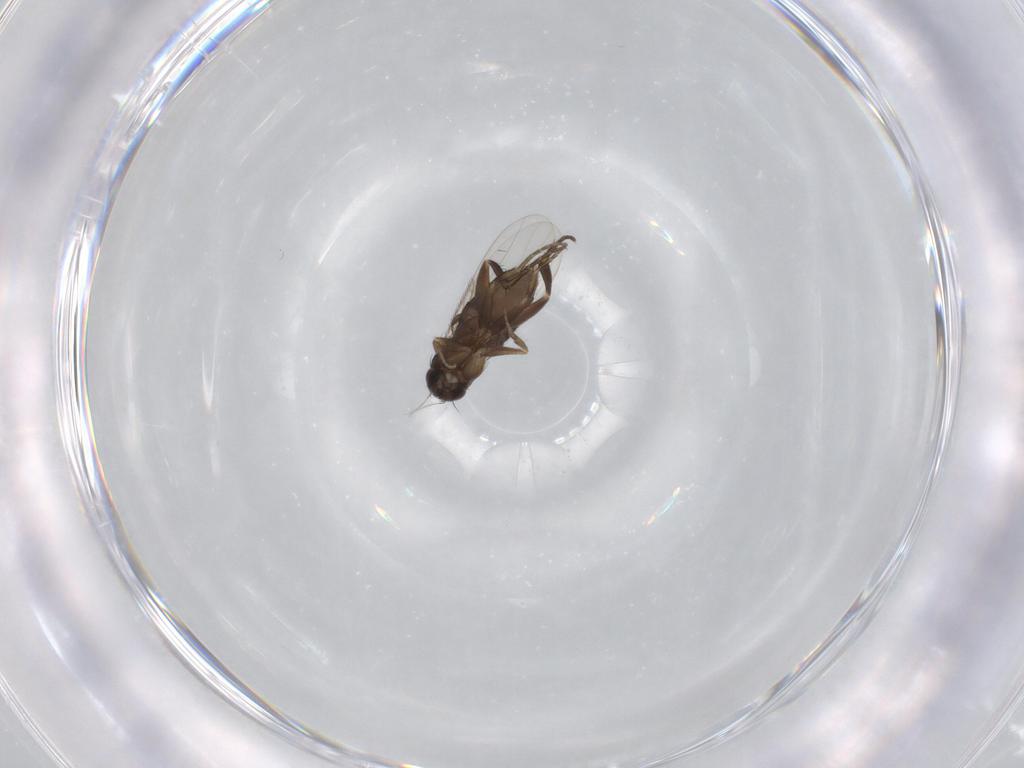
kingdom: Animalia
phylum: Arthropoda
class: Insecta
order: Diptera
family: Phoridae
